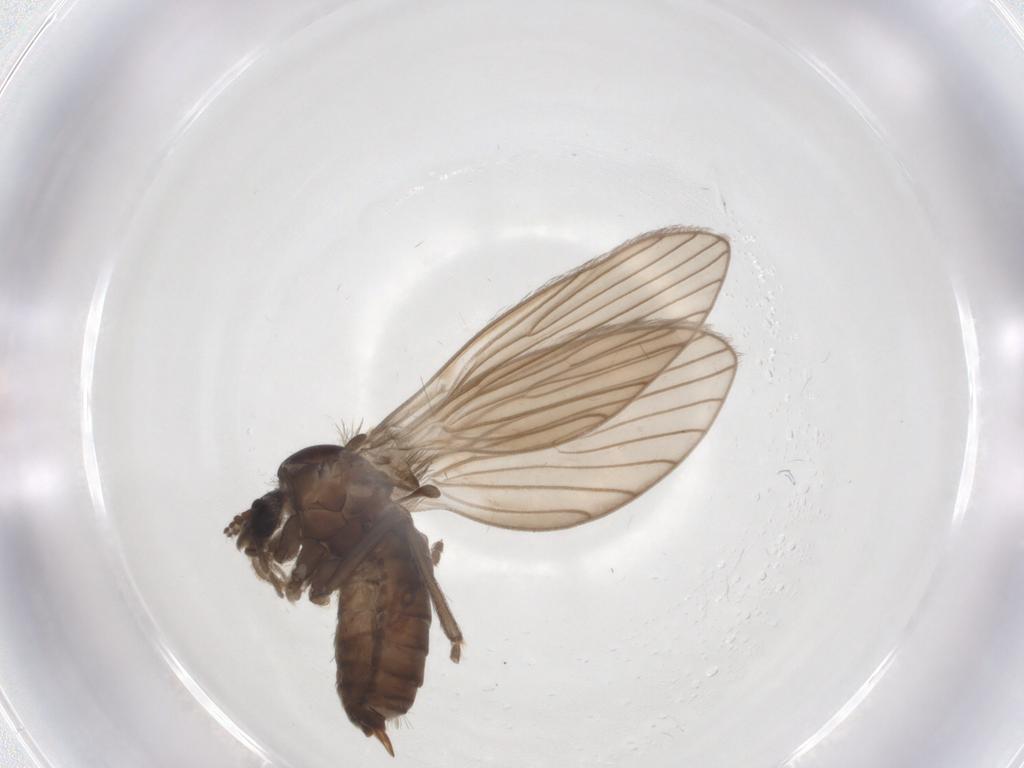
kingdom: Animalia
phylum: Arthropoda
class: Insecta
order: Diptera
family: Psychodidae
